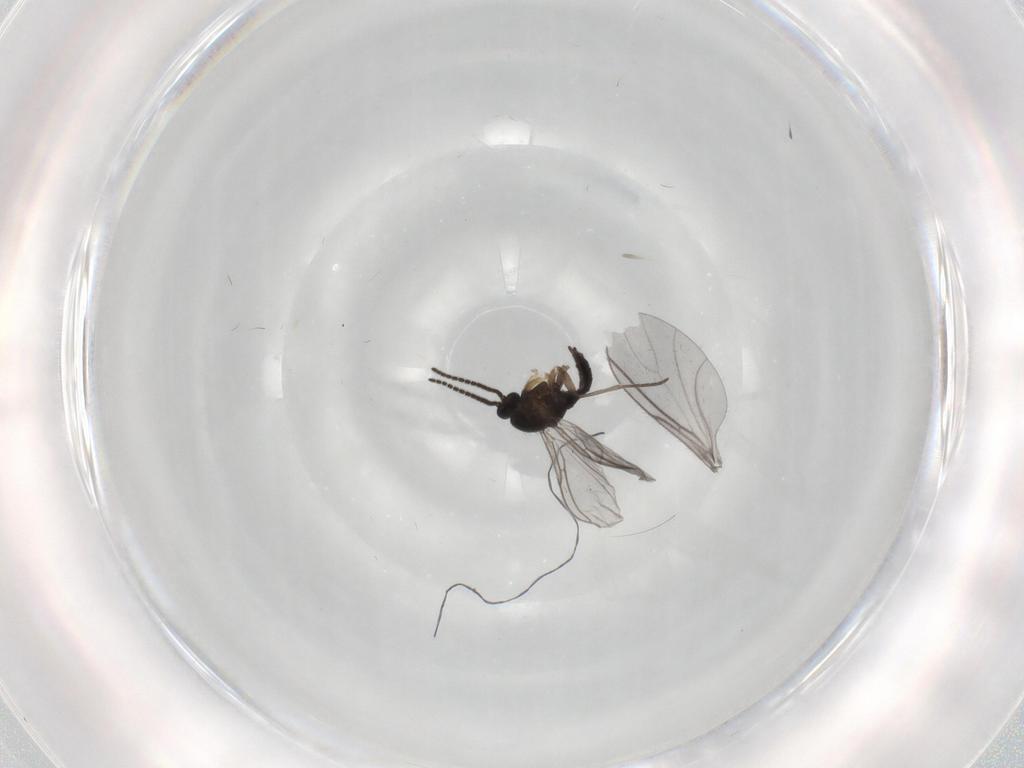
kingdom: Animalia
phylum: Arthropoda
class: Insecta
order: Diptera
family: Sciaridae
